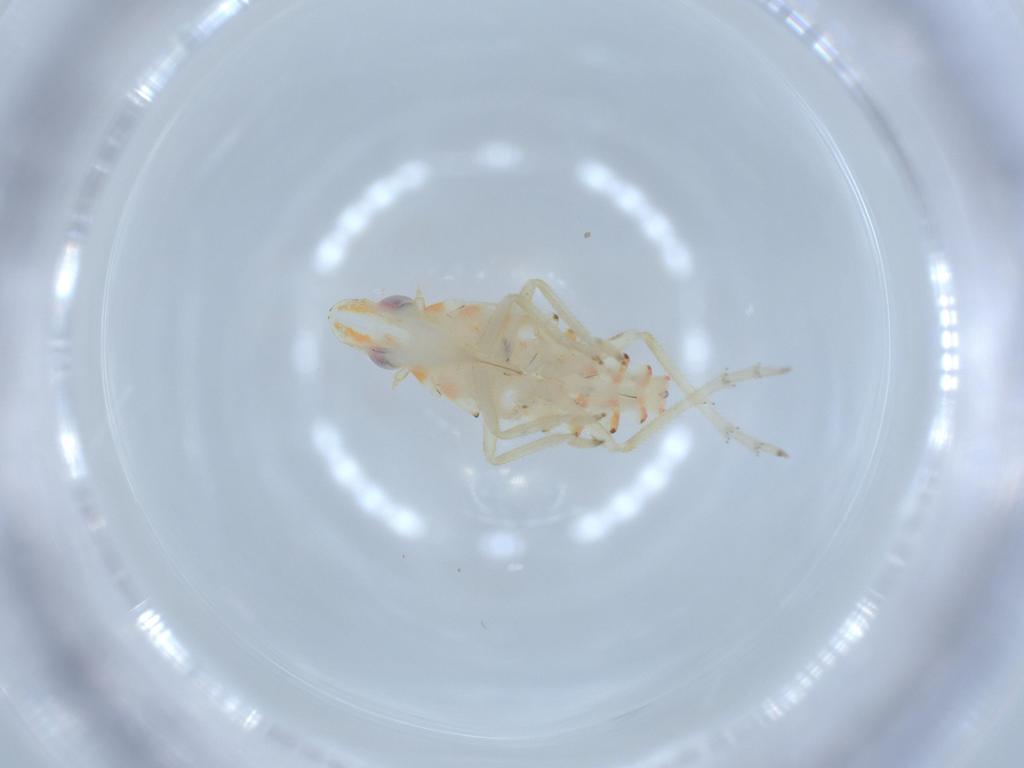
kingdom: Animalia
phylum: Arthropoda
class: Insecta
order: Hemiptera
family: Tropiduchidae
